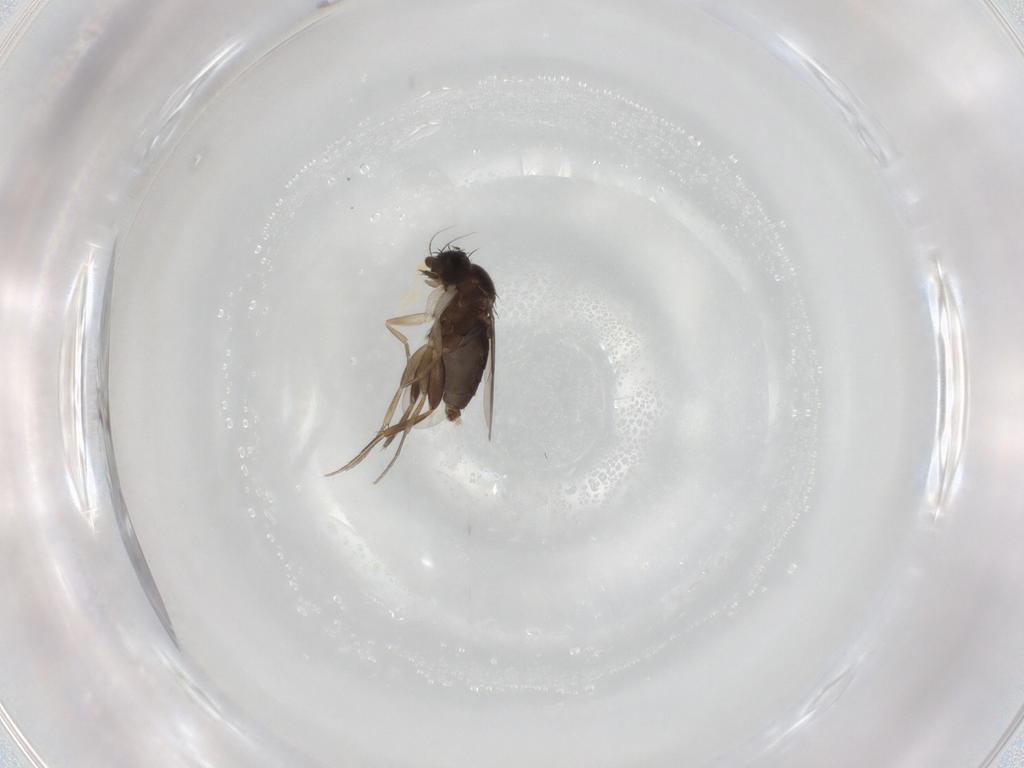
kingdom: Animalia
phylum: Arthropoda
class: Insecta
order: Diptera
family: Phoridae
